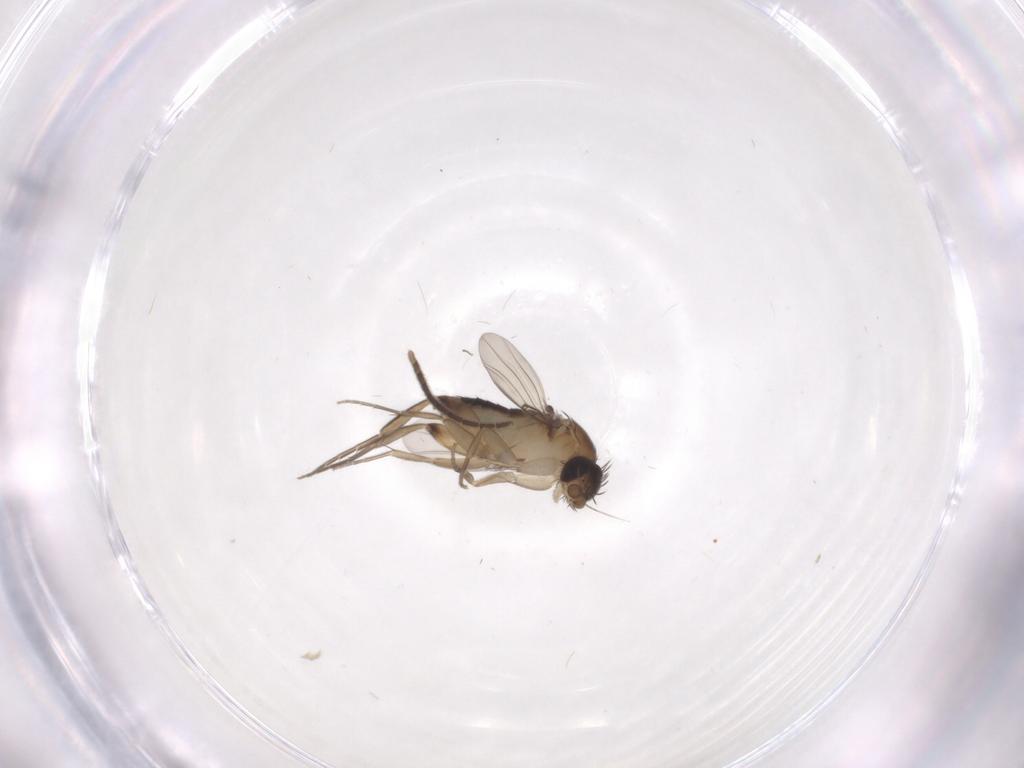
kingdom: Animalia
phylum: Arthropoda
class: Insecta
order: Diptera
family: Sciaridae
